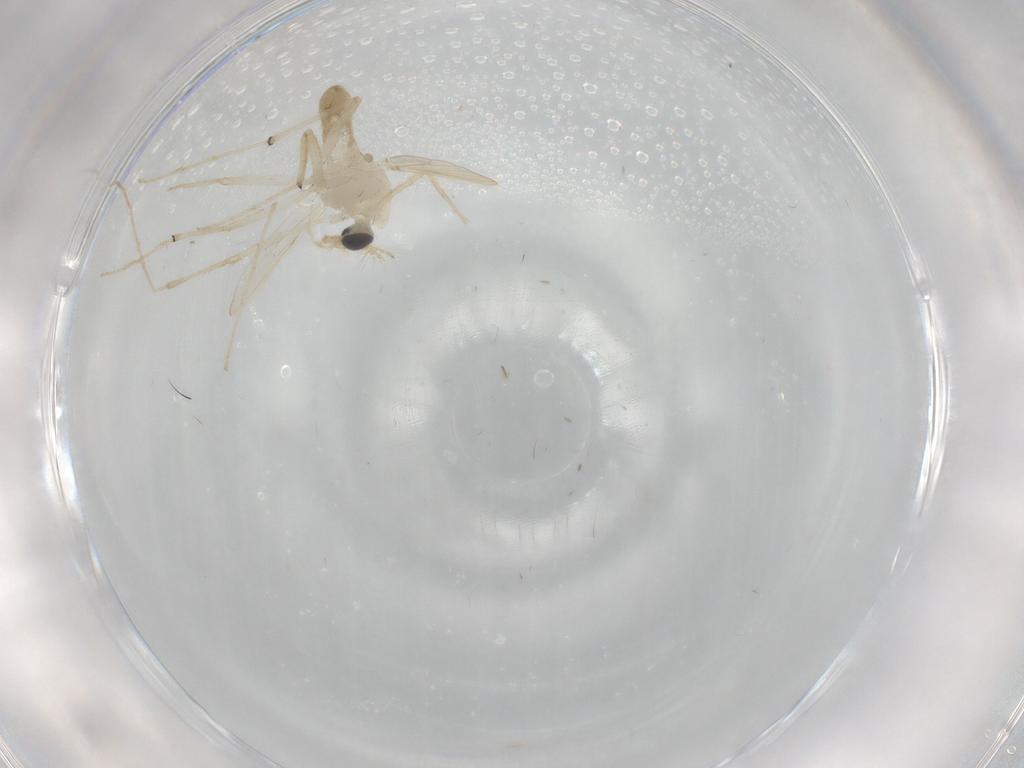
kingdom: Animalia
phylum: Arthropoda
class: Insecta
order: Diptera
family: Chironomidae
